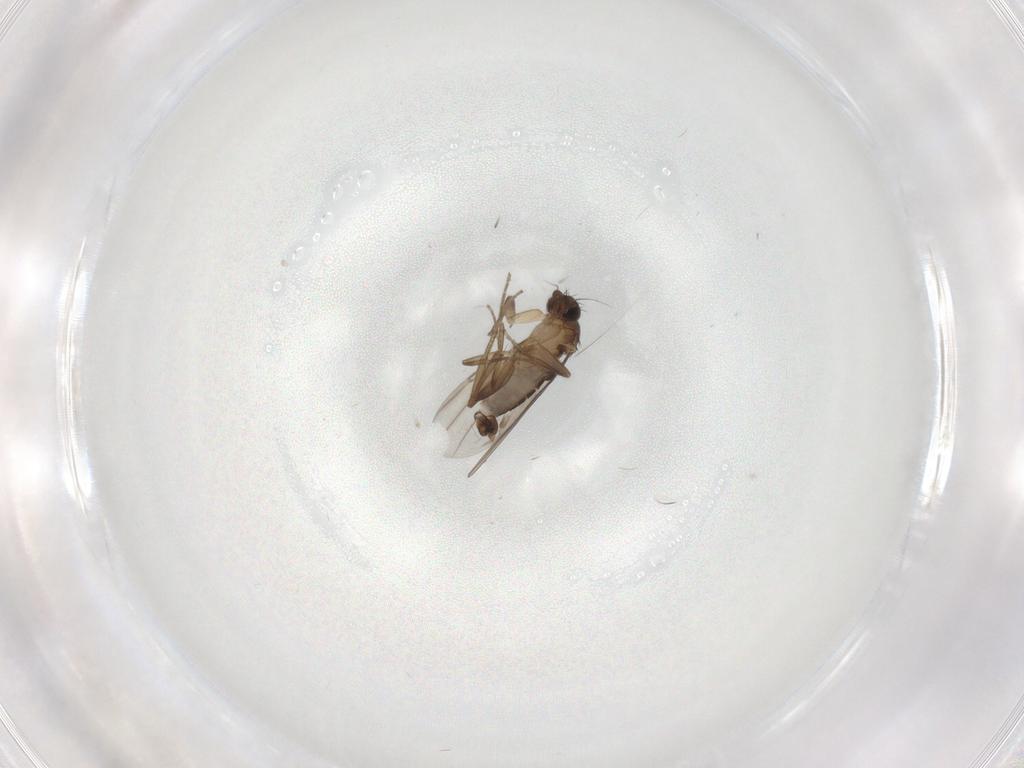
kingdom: Animalia
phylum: Arthropoda
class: Insecta
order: Diptera
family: Phoridae
